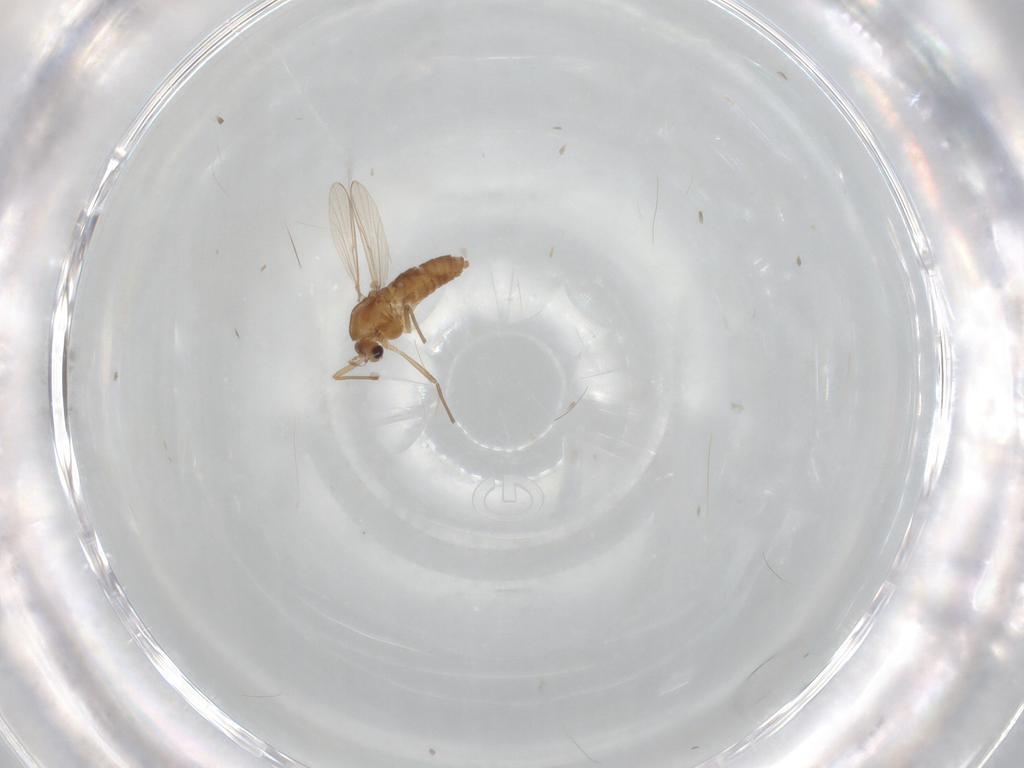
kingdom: Animalia
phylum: Arthropoda
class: Insecta
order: Diptera
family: Chironomidae
